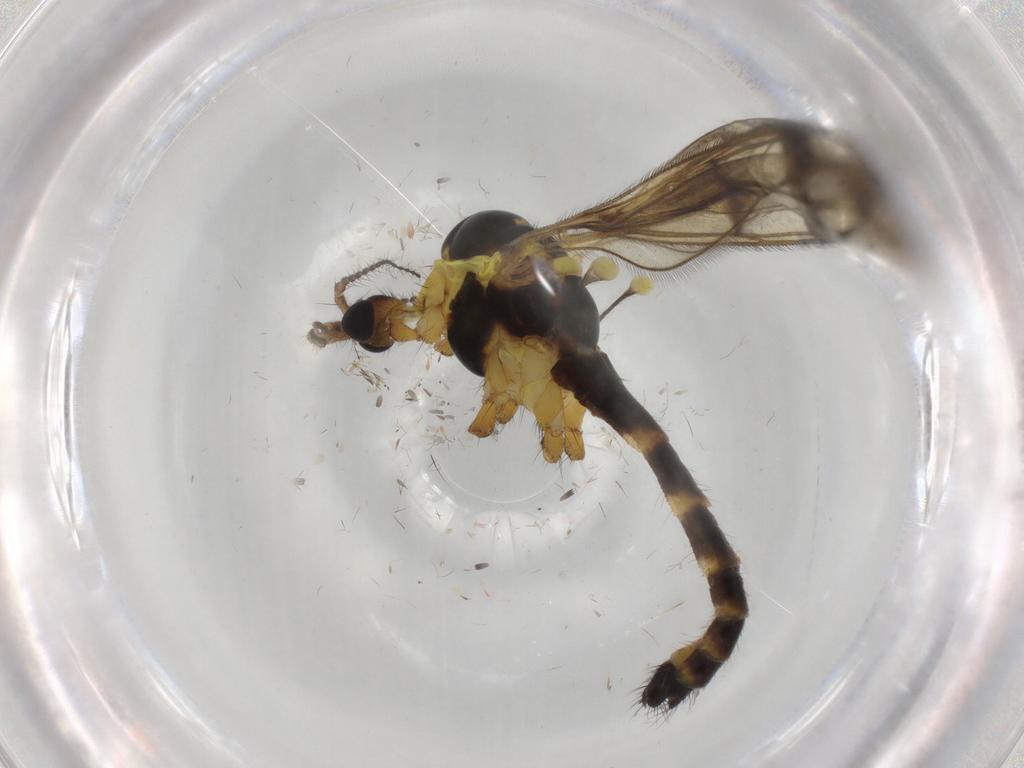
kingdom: Animalia
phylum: Arthropoda
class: Insecta
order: Diptera
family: Limoniidae
